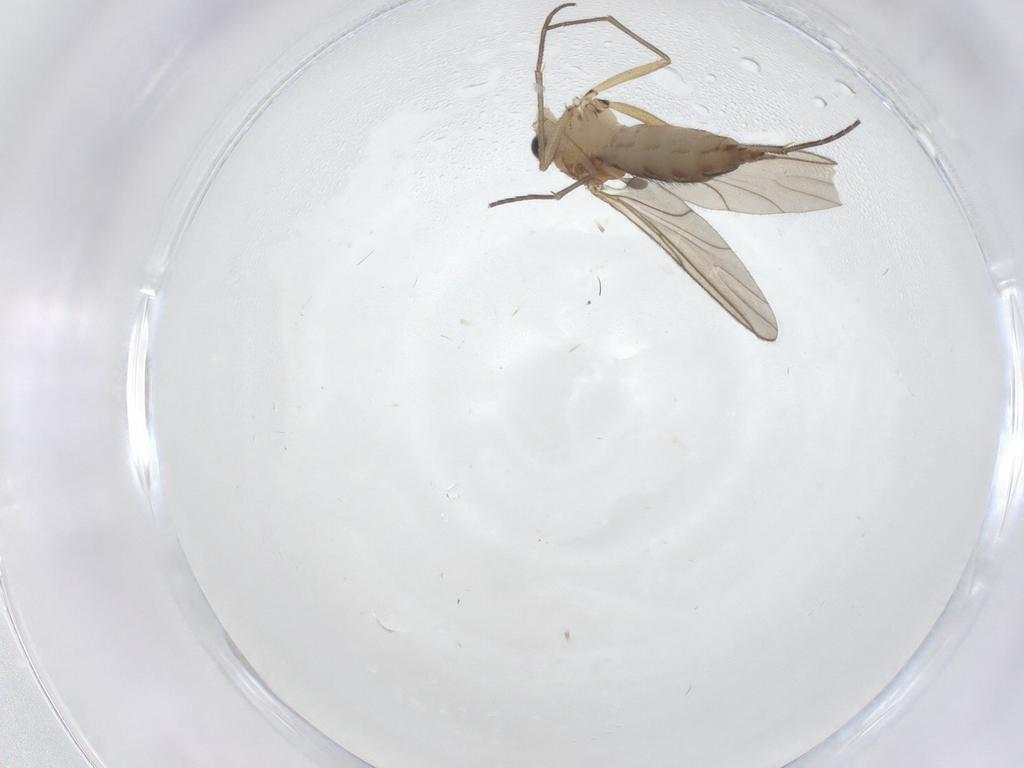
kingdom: Animalia
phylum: Arthropoda
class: Insecta
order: Diptera
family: Sciaridae
